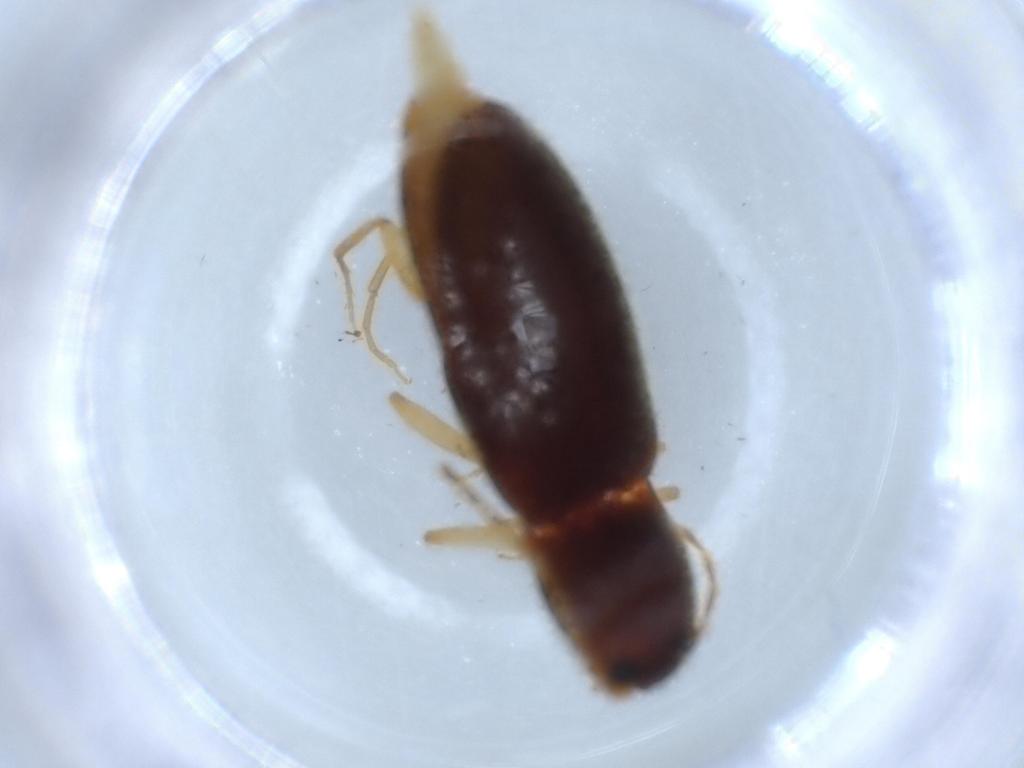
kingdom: Animalia
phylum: Arthropoda
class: Insecta
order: Coleoptera
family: Elateridae
